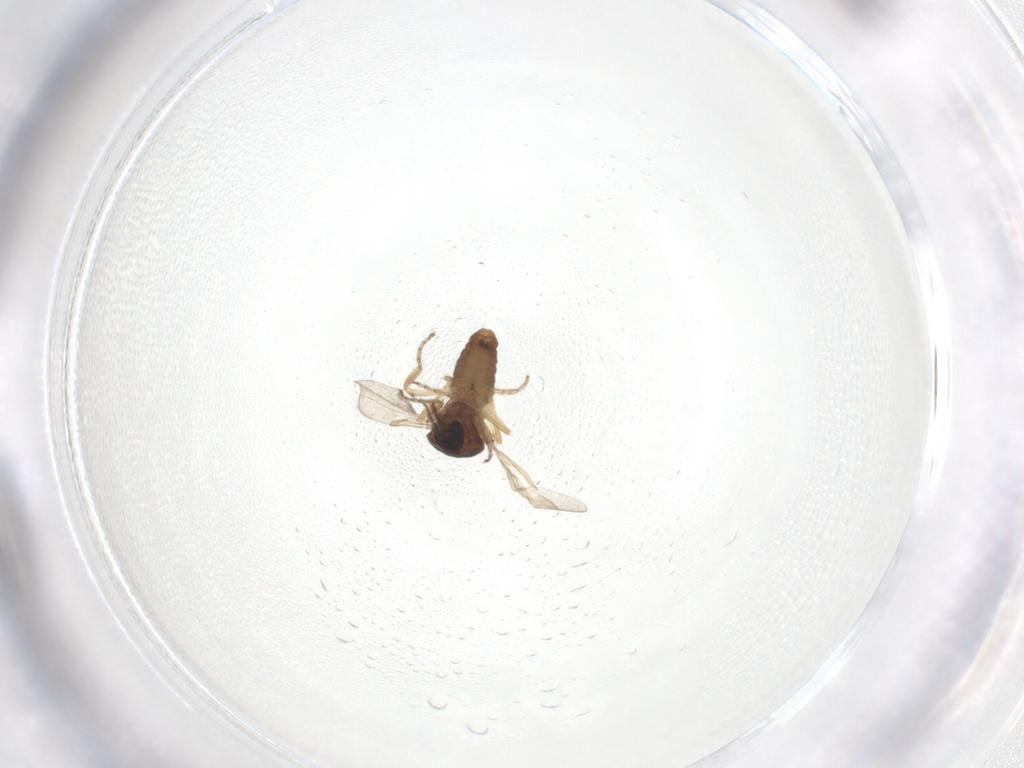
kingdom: Animalia
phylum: Arthropoda
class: Insecta
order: Diptera
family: Ceratopogonidae
